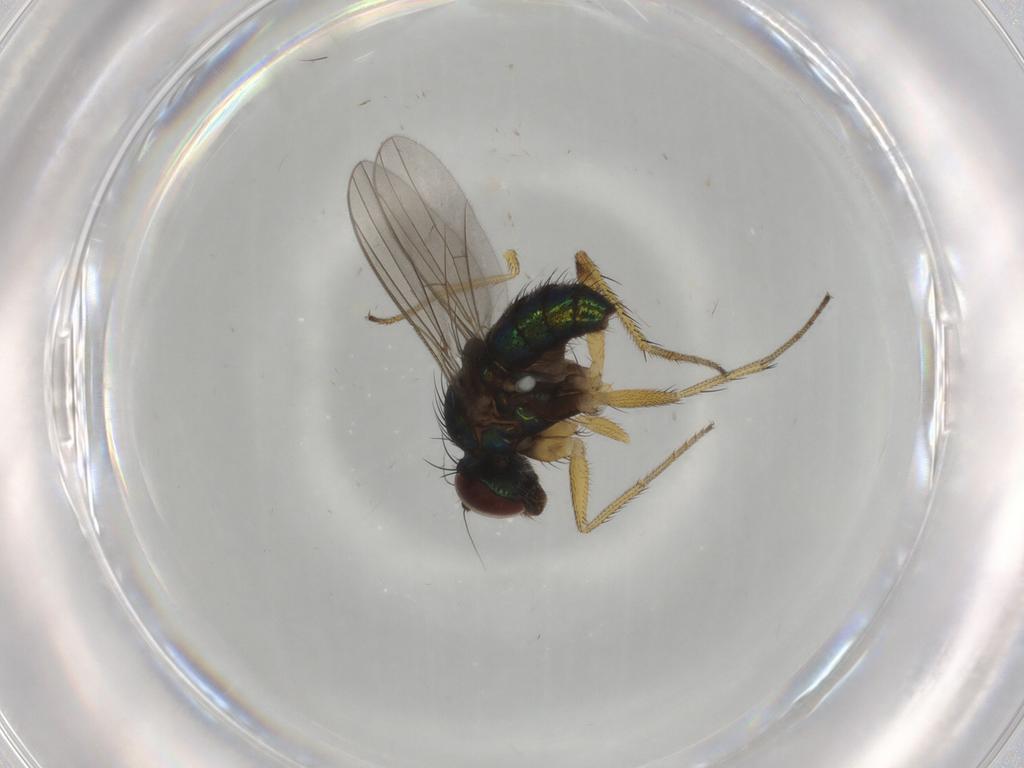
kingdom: Animalia
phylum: Arthropoda
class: Insecta
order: Diptera
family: Dolichopodidae
